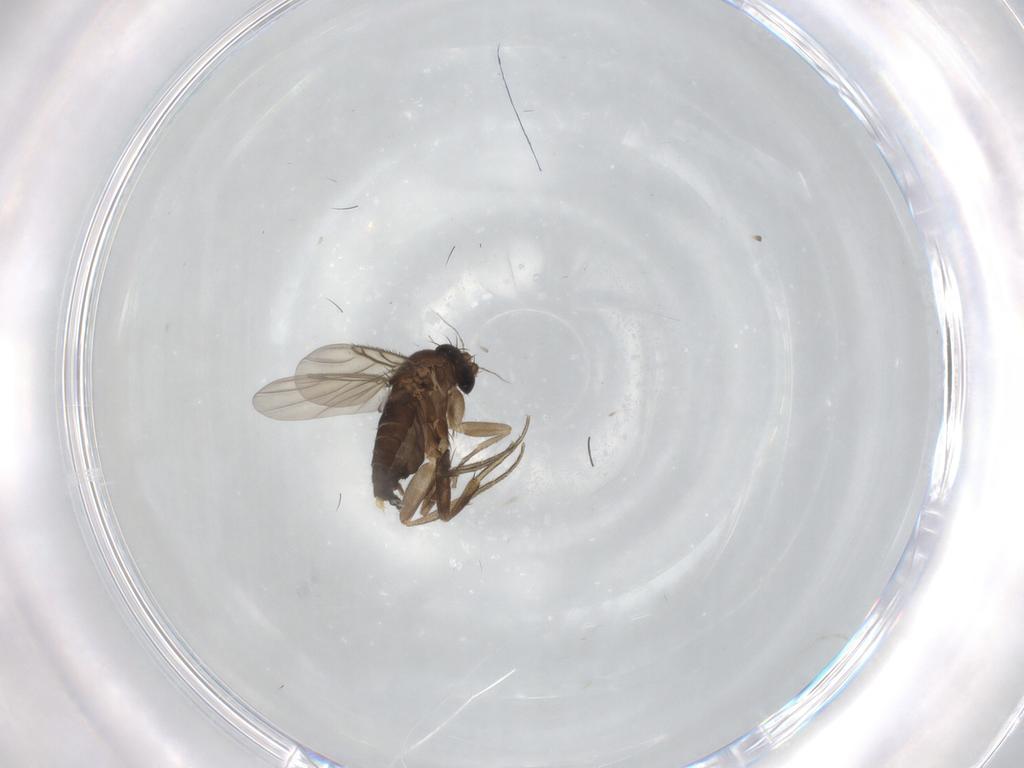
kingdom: Animalia
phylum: Arthropoda
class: Insecta
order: Diptera
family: Phoridae
